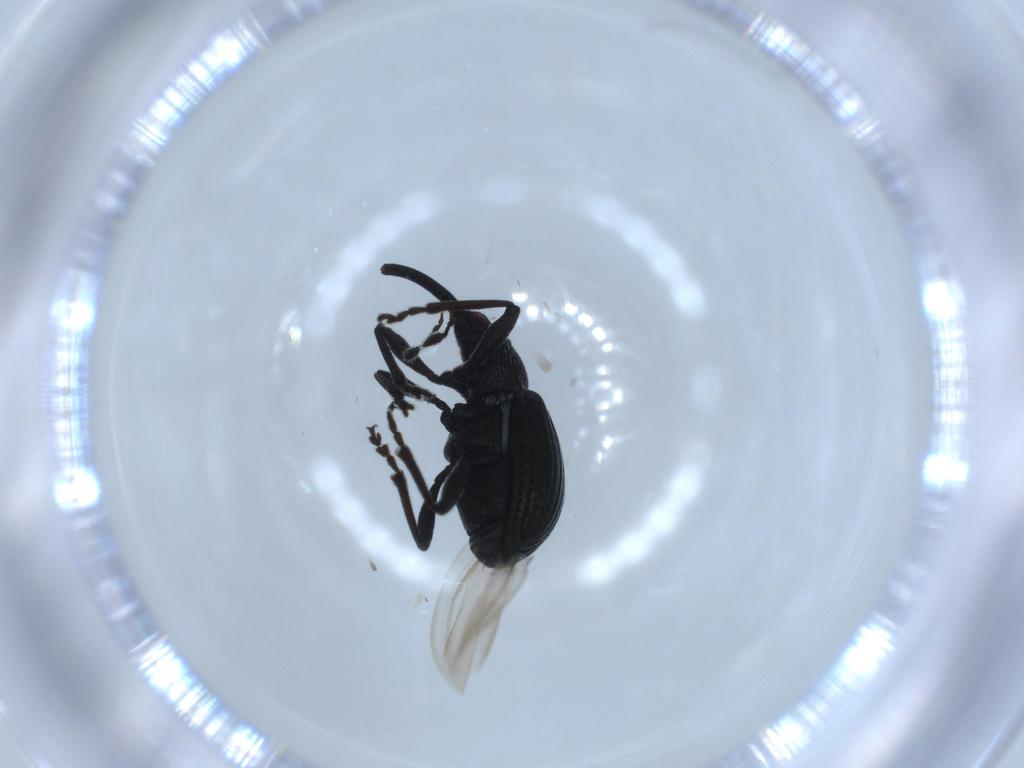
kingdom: Animalia
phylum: Arthropoda
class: Insecta
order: Coleoptera
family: Brentidae
